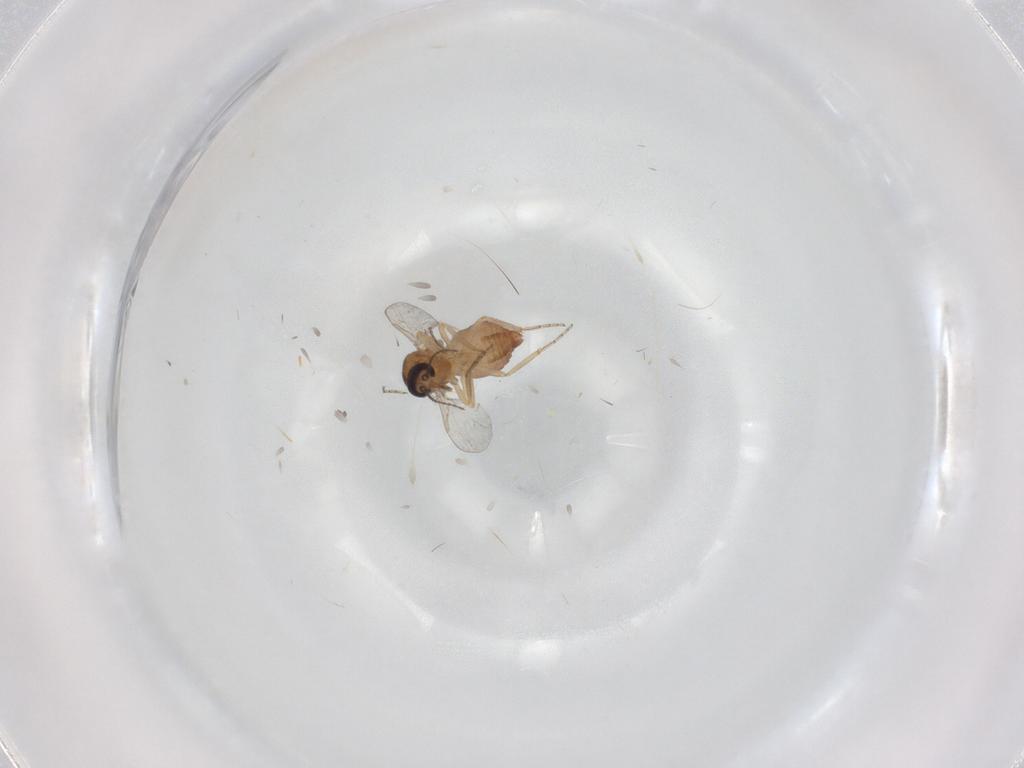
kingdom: Animalia
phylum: Arthropoda
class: Insecta
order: Diptera
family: Ceratopogonidae
